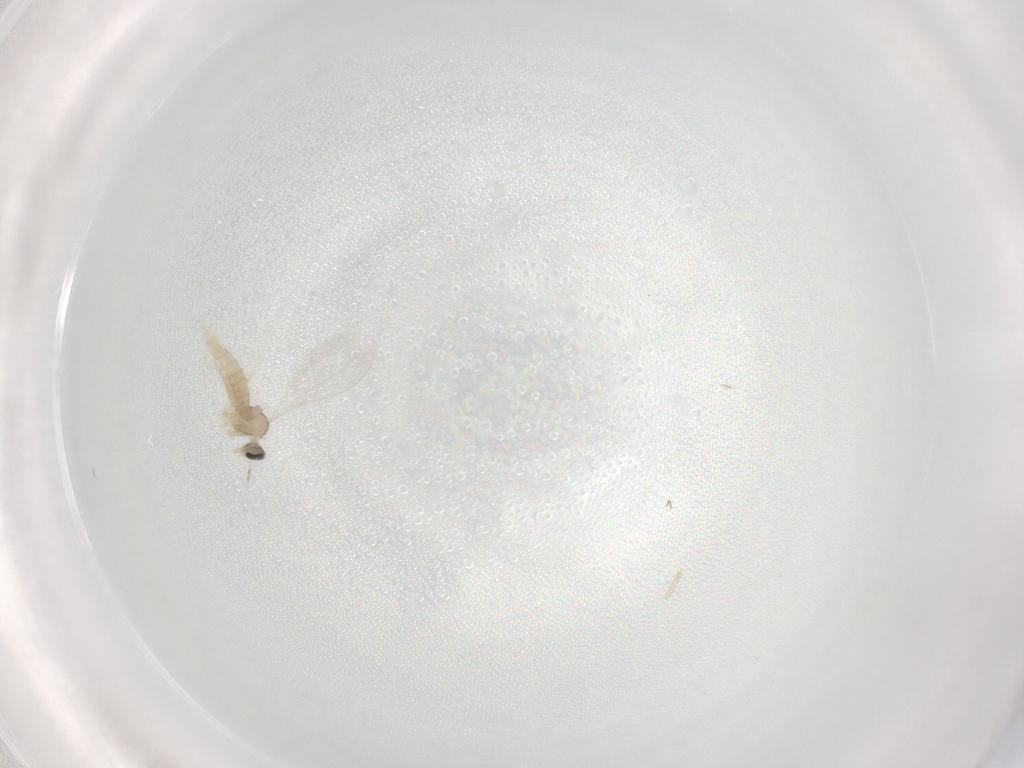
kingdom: Animalia
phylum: Arthropoda
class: Insecta
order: Diptera
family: Cecidomyiidae
